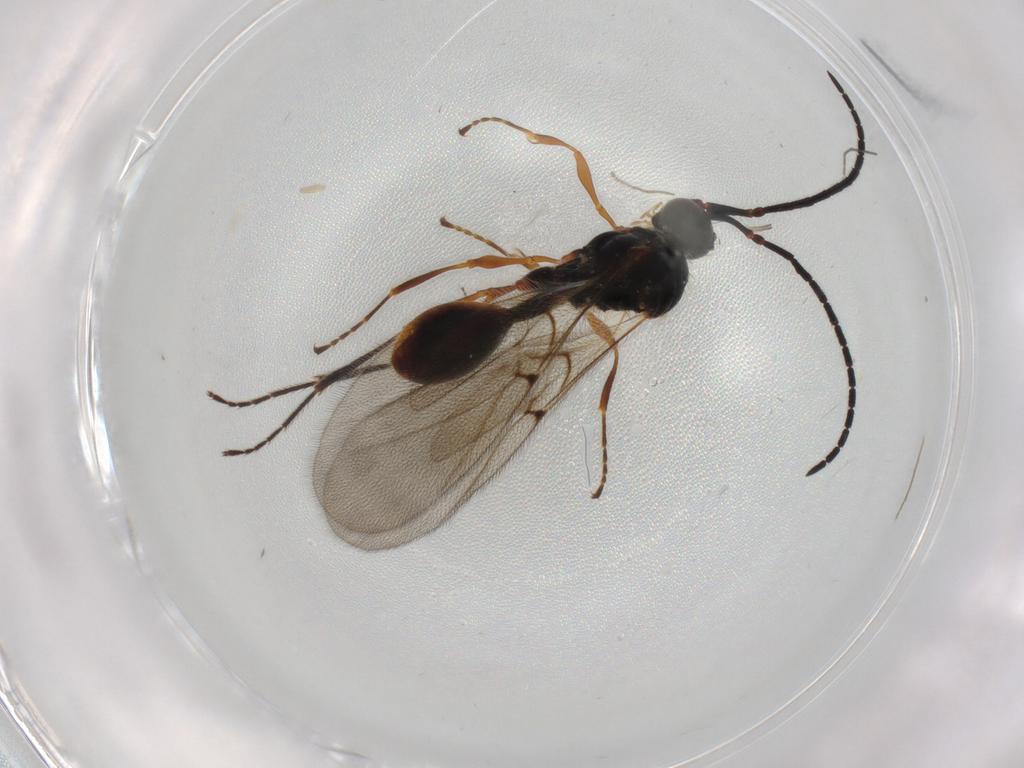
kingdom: Animalia
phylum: Arthropoda
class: Insecta
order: Hymenoptera
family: Diapriidae
